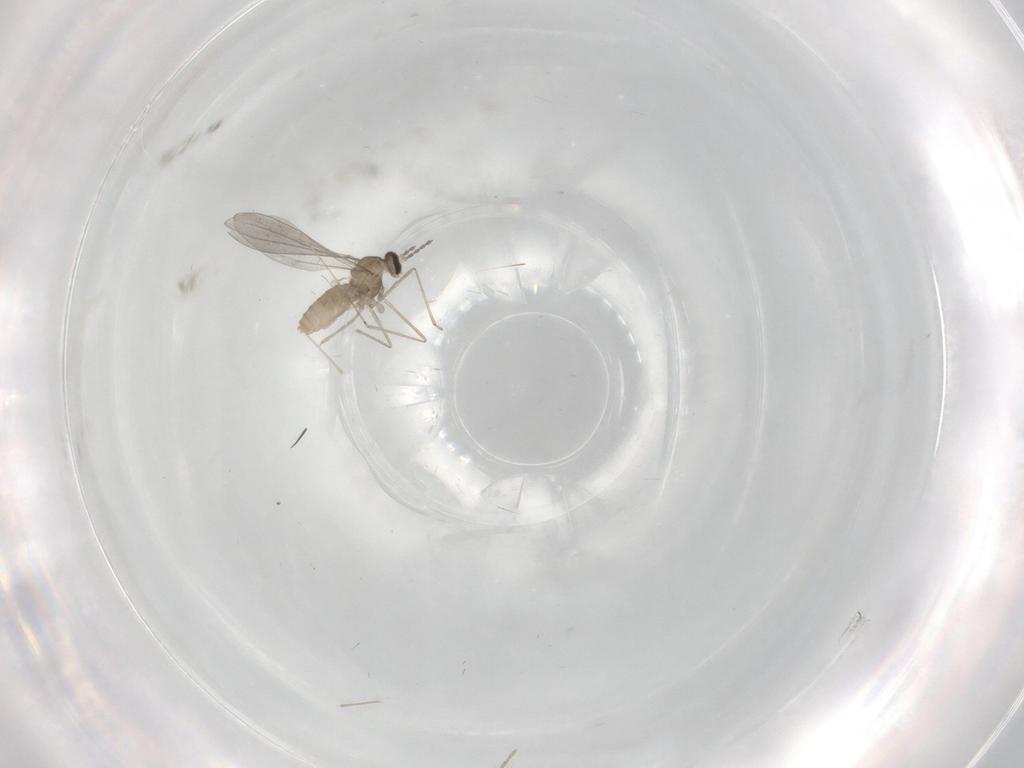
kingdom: Animalia
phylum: Arthropoda
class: Insecta
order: Diptera
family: Cecidomyiidae
